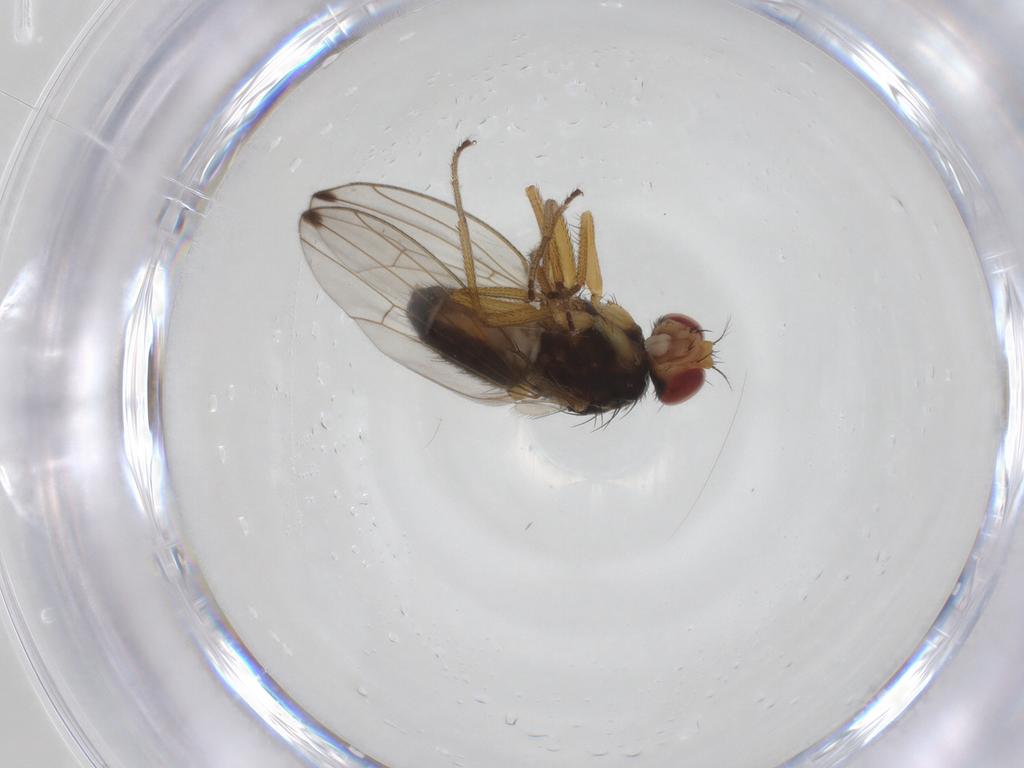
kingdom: Animalia
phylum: Arthropoda
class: Insecta
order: Diptera
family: Drosophilidae
